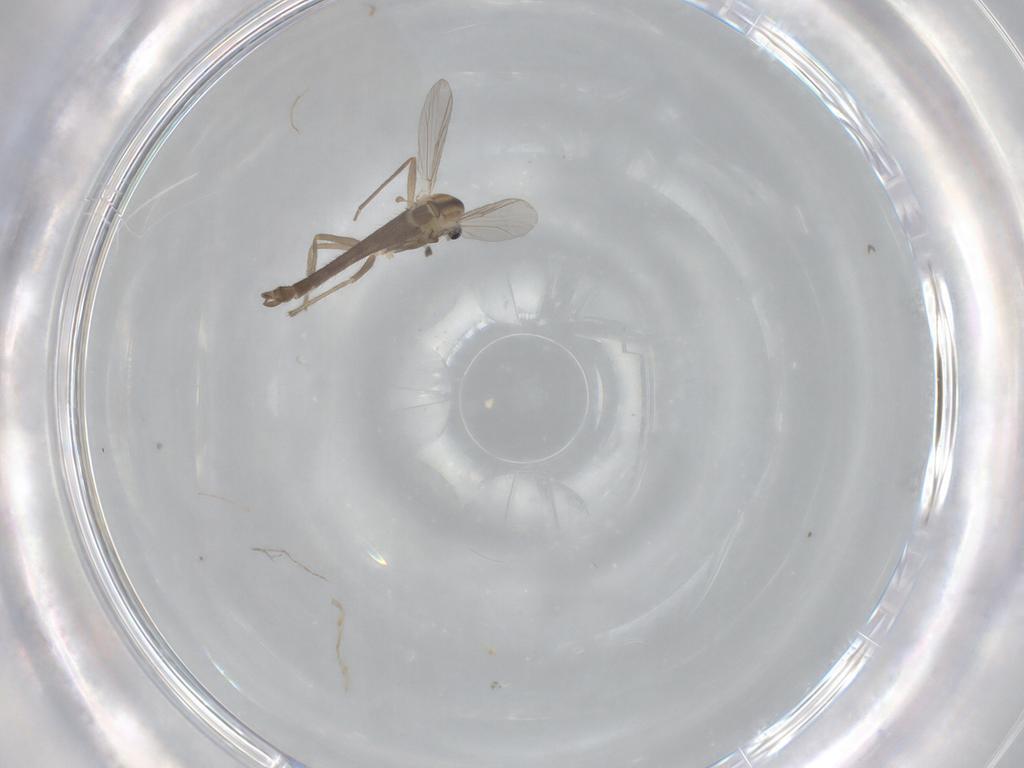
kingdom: Animalia
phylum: Arthropoda
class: Insecta
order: Diptera
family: Chironomidae
